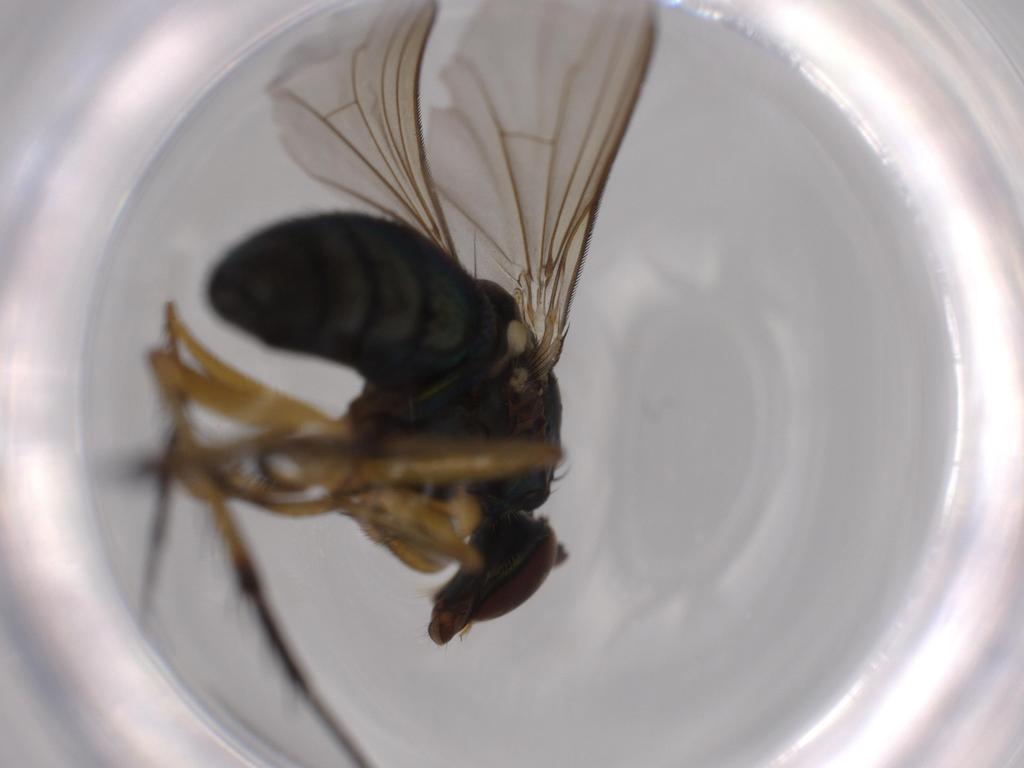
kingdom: Animalia
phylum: Arthropoda
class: Insecta
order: Diptera
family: Dolichopodidae
